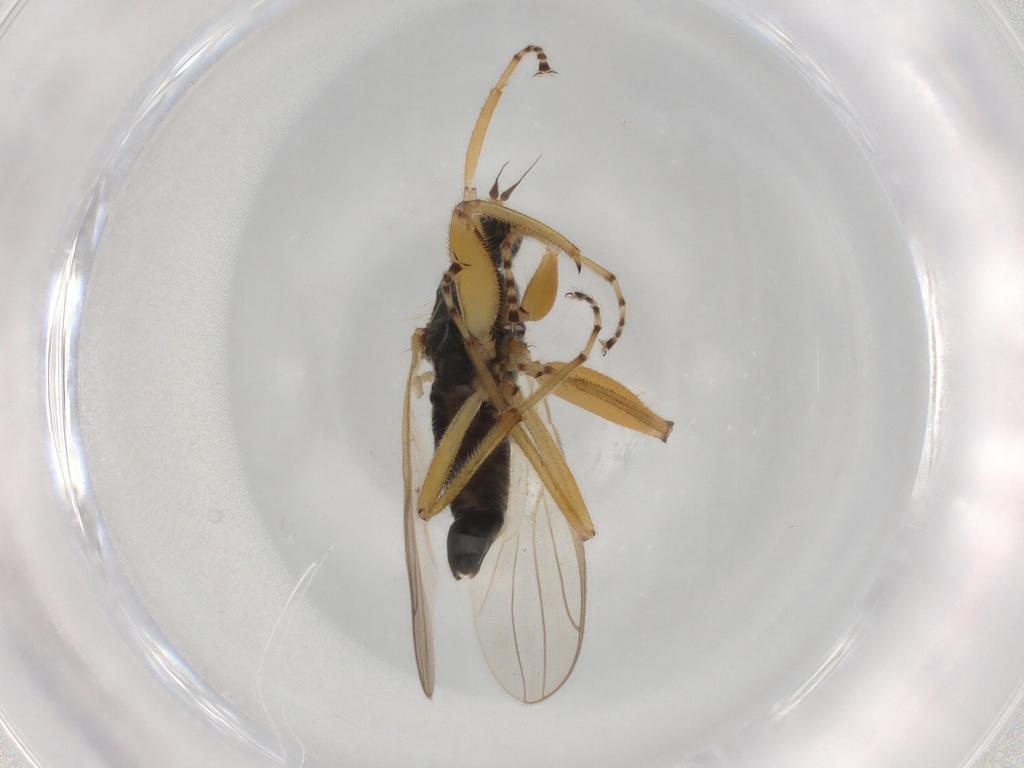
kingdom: Animalia
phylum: Arthropoda
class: Insecta
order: Diptera
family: Hybotidae
